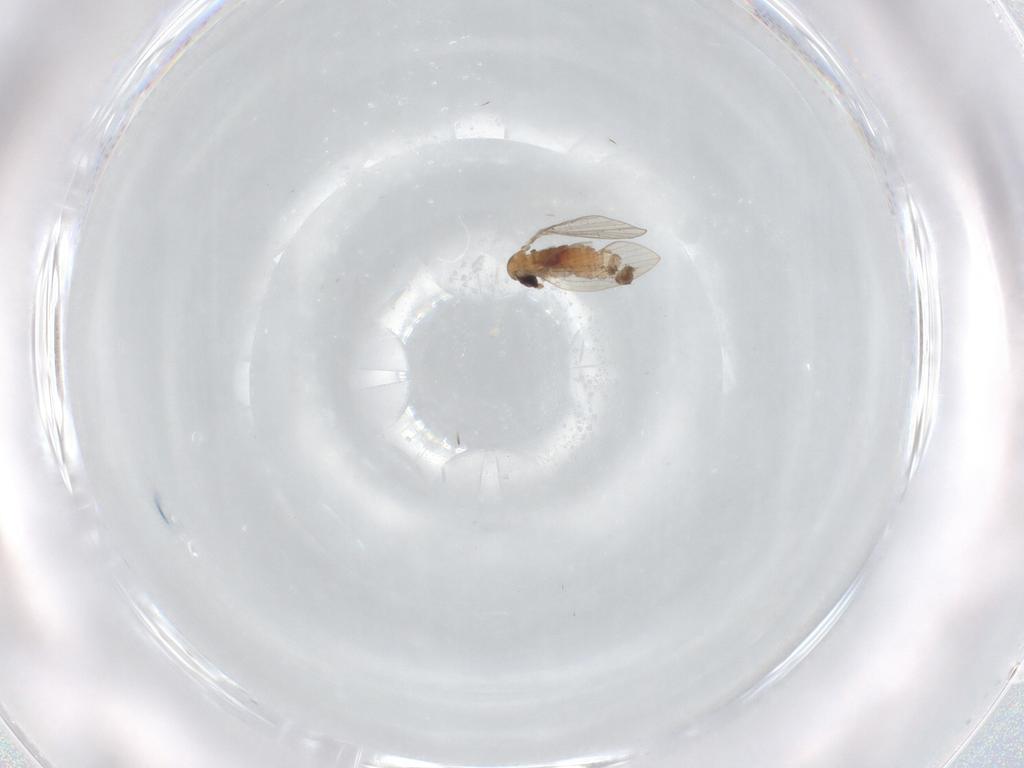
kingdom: Animalia
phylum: Arthropoda
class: Insecta
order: Diptera
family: Psychodidae
